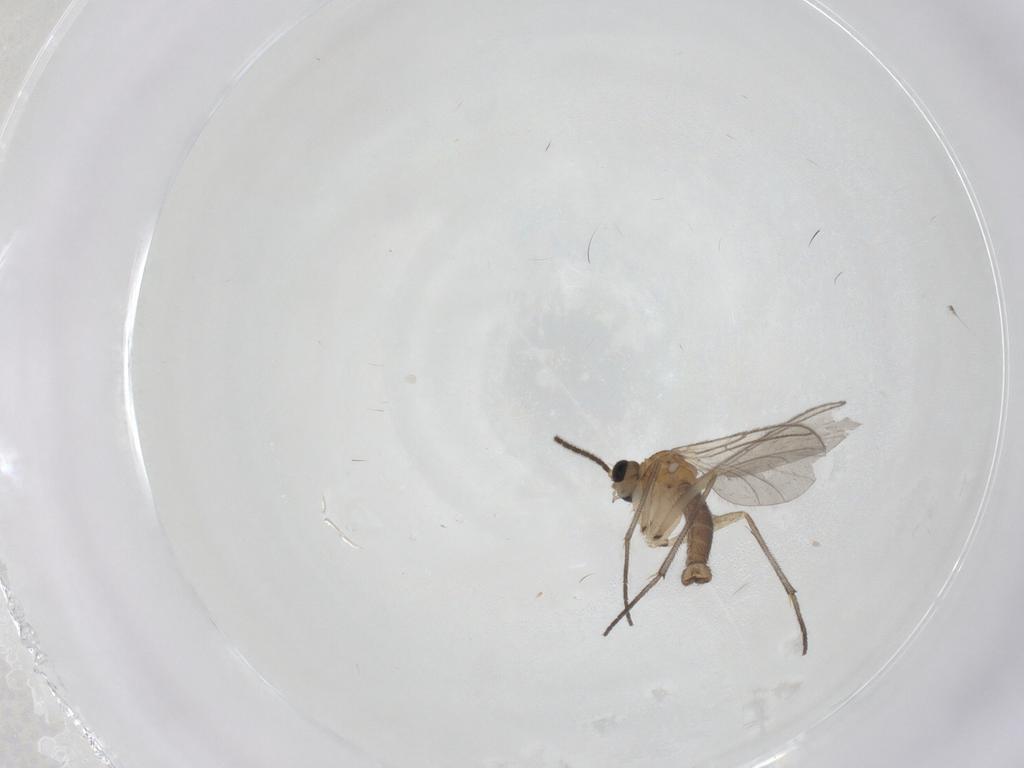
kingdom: Animalia
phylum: Arthropoda
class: Insecta
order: Diptera
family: Sciaridae
